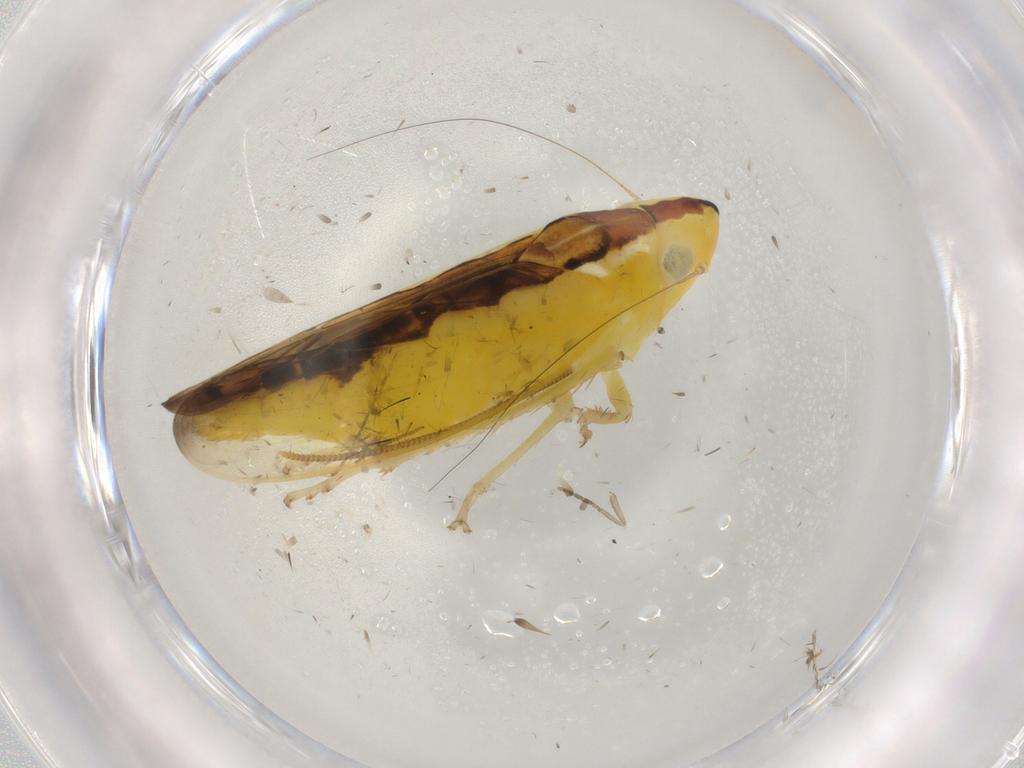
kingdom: Animalia
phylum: Arthropoda
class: Insecta
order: Hemiptera
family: Cicadellidae
